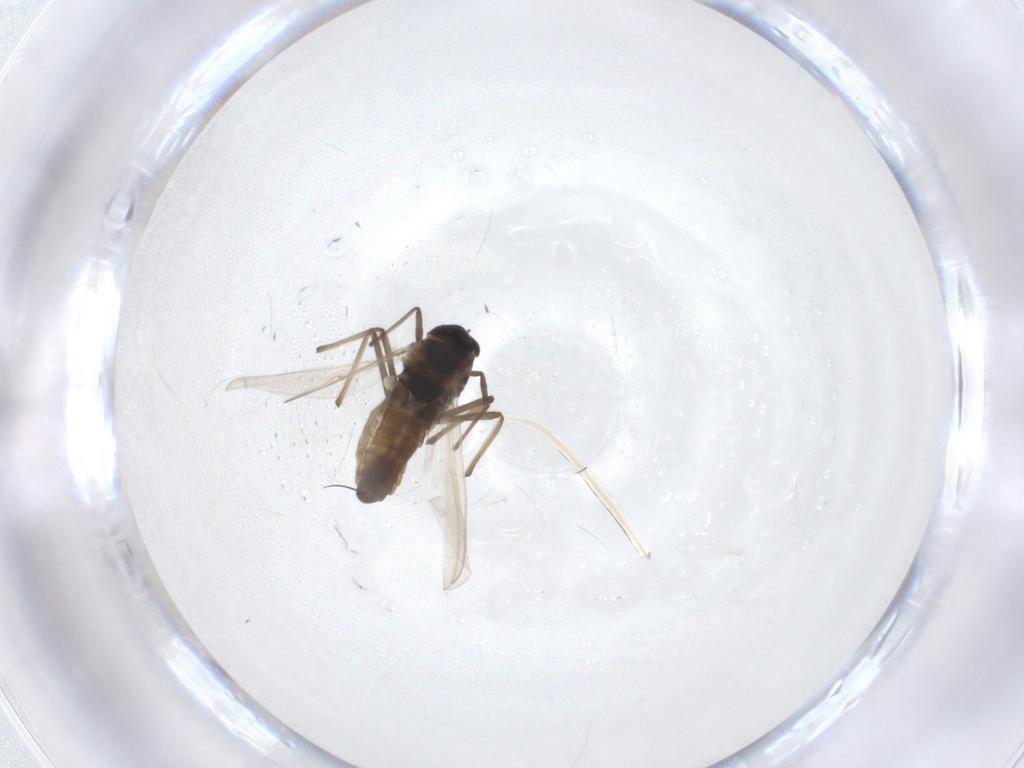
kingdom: Animalia
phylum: Arthropoda
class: Insecta
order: Diptera
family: Chironomidae
